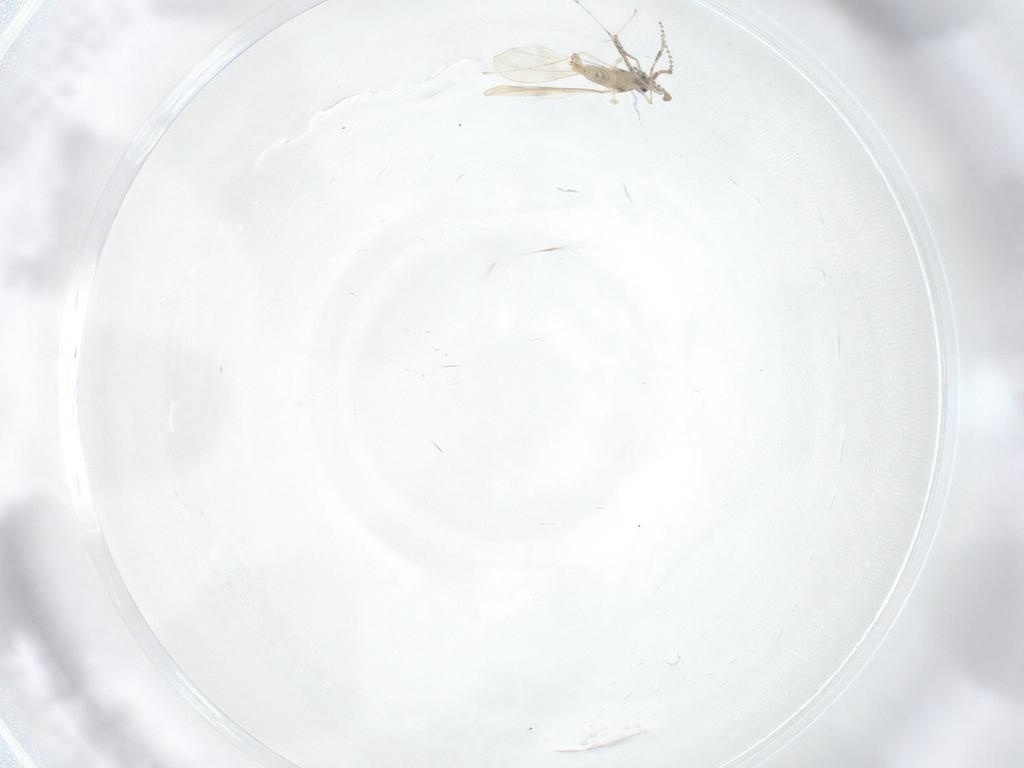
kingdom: Animalia
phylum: Arthropoda
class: Insecta
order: Diptera
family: Cecidomyiidae
